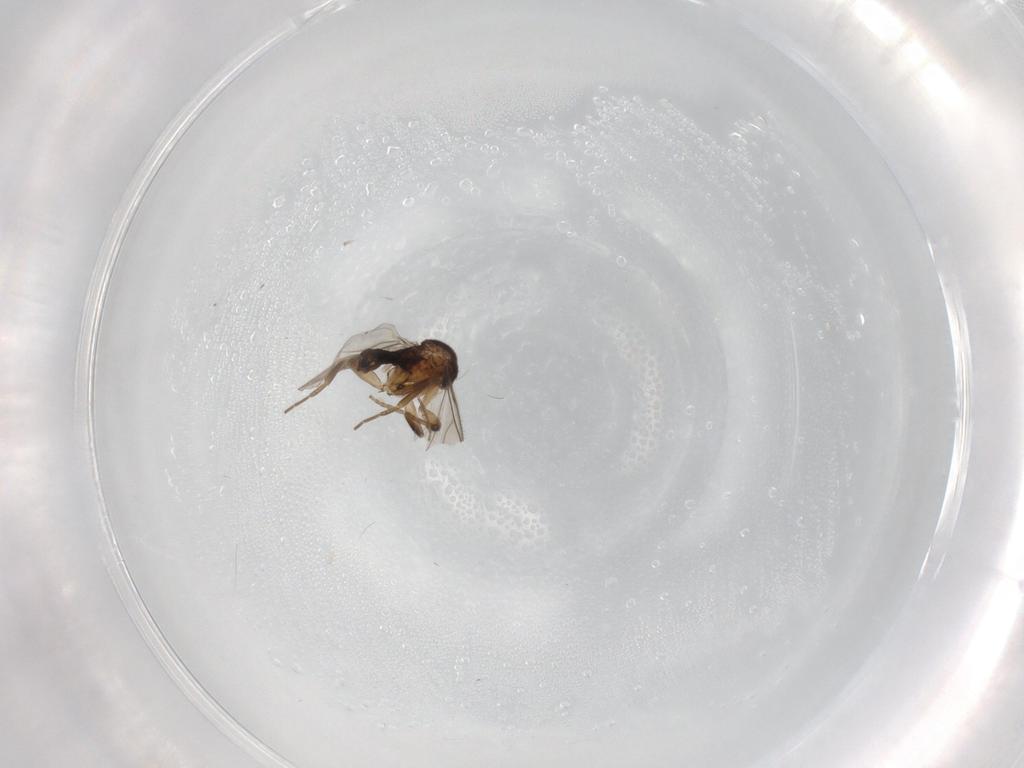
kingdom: Animalia
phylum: Arthropoda
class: Insecta
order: Diptera
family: Phoridae
